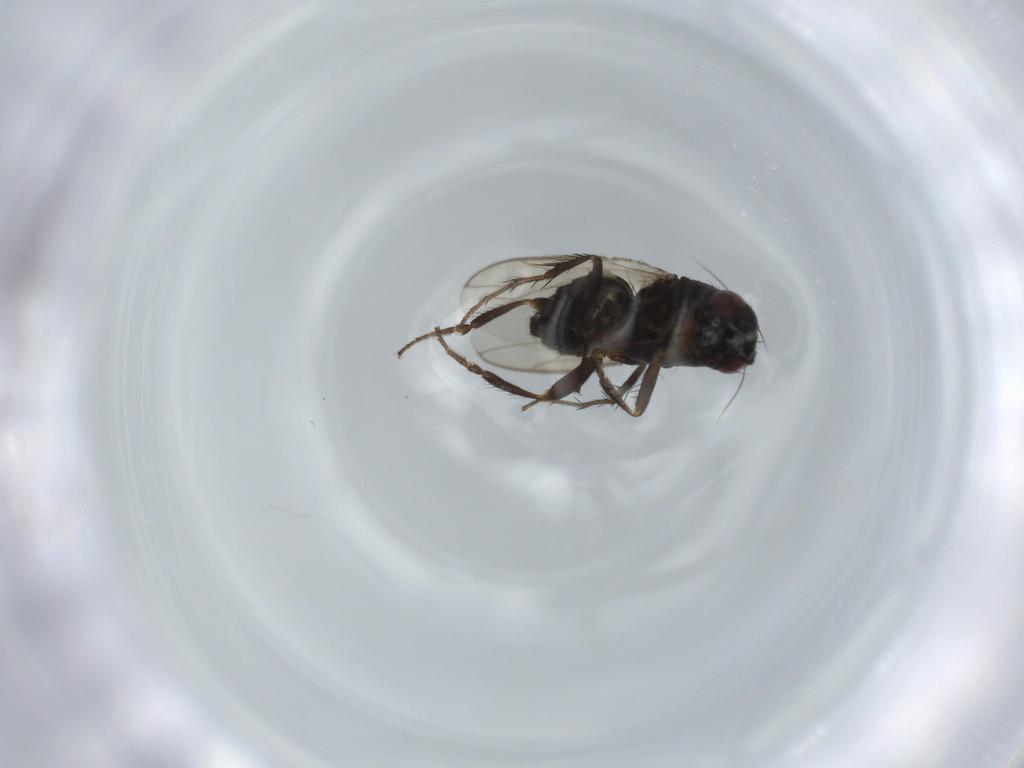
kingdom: Animalia
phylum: Arthropoda
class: Insecta
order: Diptera
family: Sphaeroceridae
